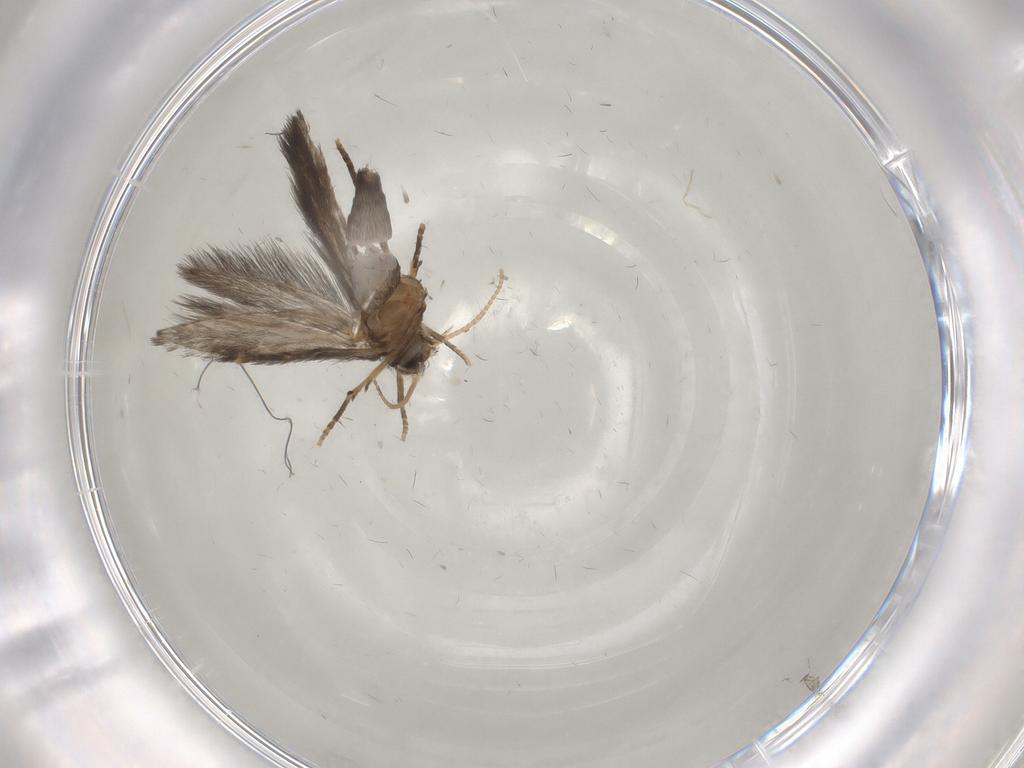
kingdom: Animalia
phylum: Arthropoda
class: Insecta
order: Trichoptera
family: Hydroptilidae
